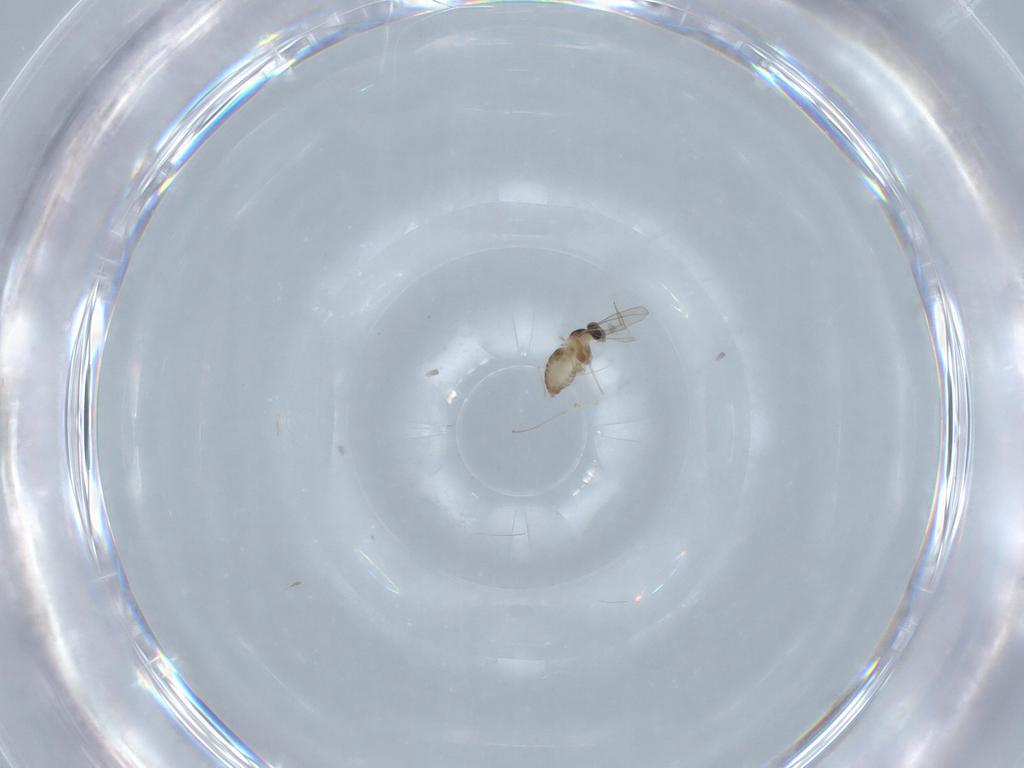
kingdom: Animalia
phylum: Arthropoda
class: Insecta
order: Diptera
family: Cecidomyiidae
